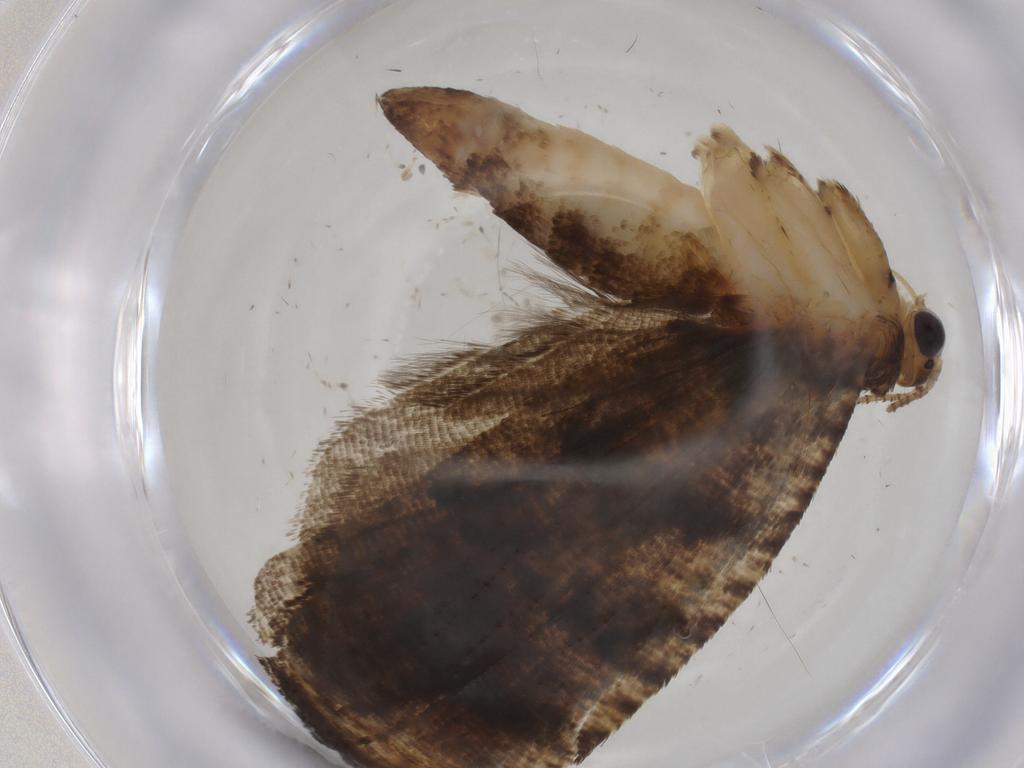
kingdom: Animalia
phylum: Arthropoda
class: Insecta
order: Lepidoptera
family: Tortricidae
